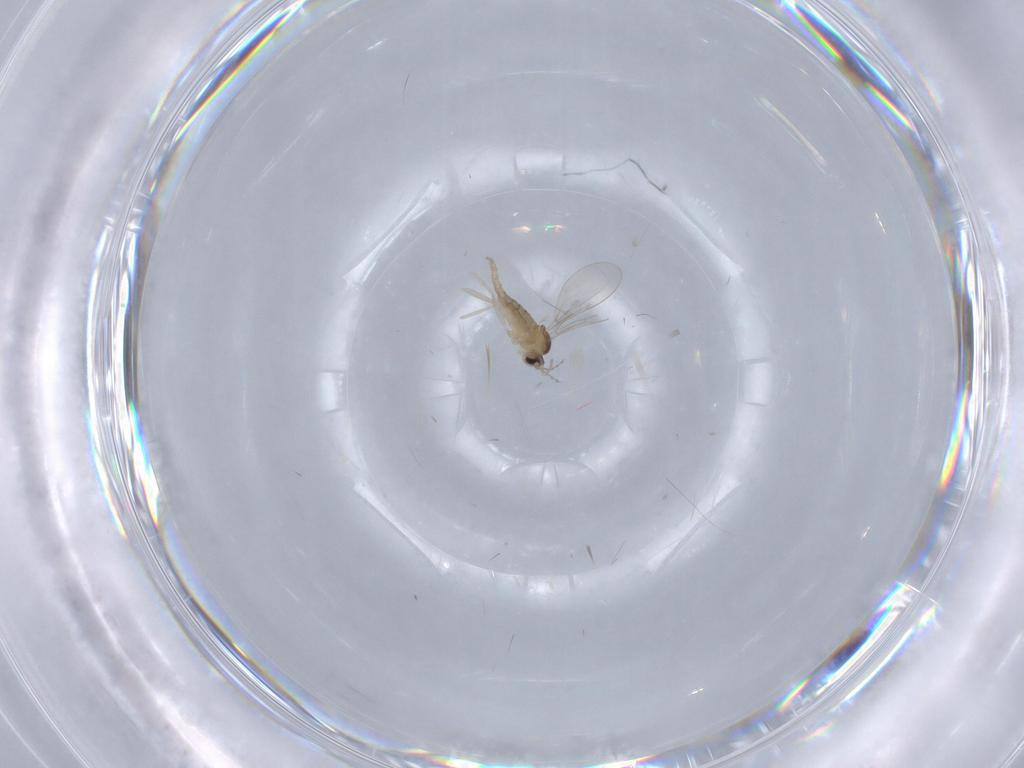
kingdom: Animalia
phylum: Arthropoda
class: Insecta
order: Diptera
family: Cecidomyiidae
